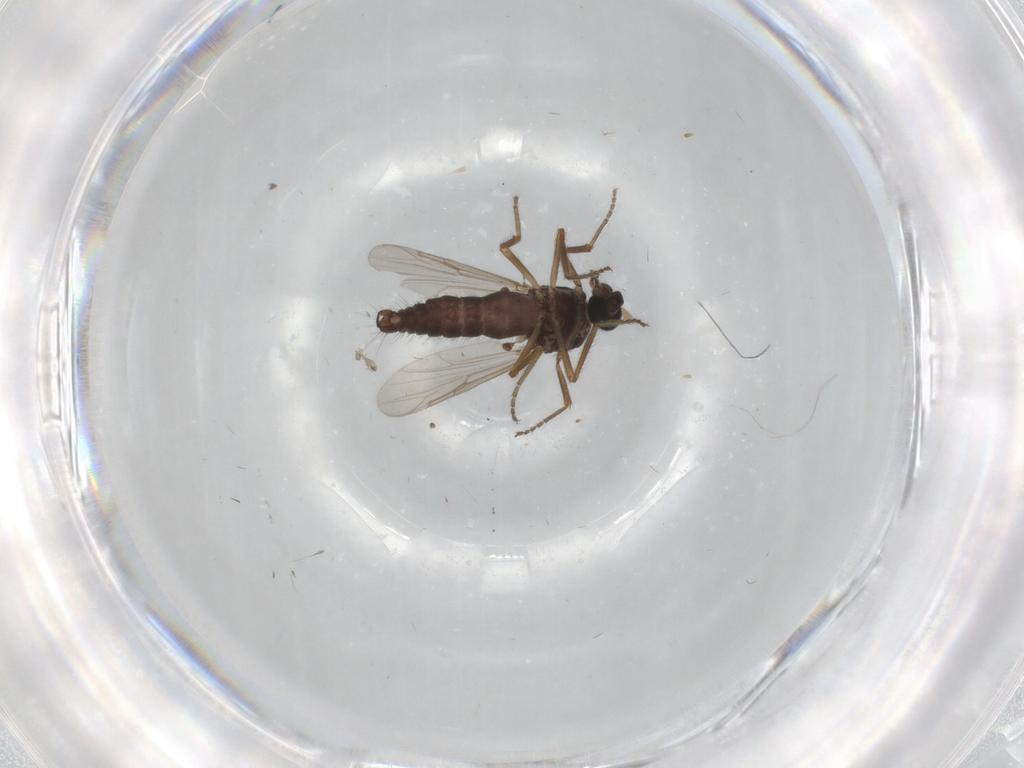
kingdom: Animalia
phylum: Arthropoda
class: Insecta
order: Diptera
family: Ceratopogonidae
